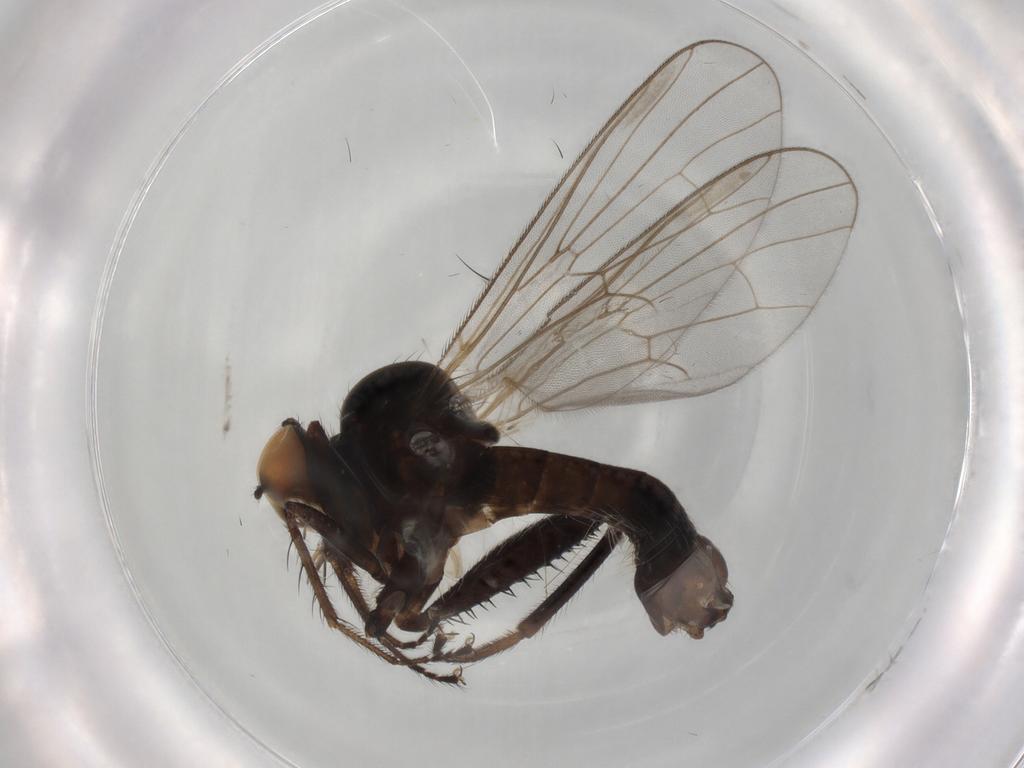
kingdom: Animalia
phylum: Arthropoda
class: Insecta
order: Diptera
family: Hybotidae
